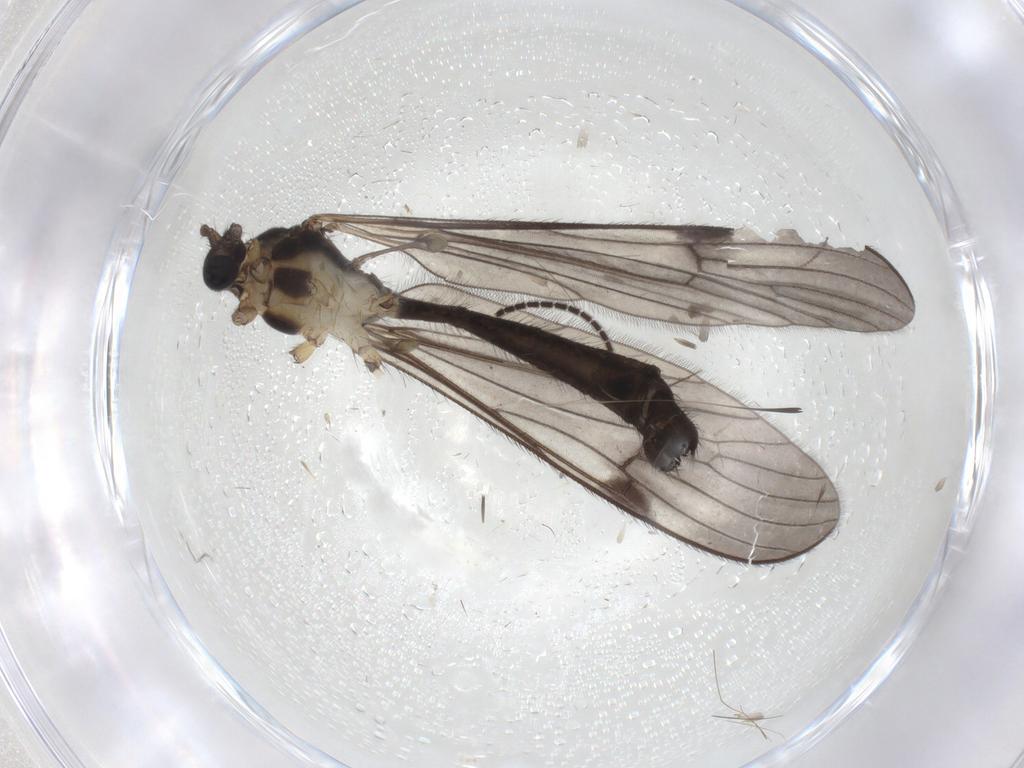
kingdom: Animalia
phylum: Arthropoda
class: Insecta
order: Diptera
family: Limoniidae
